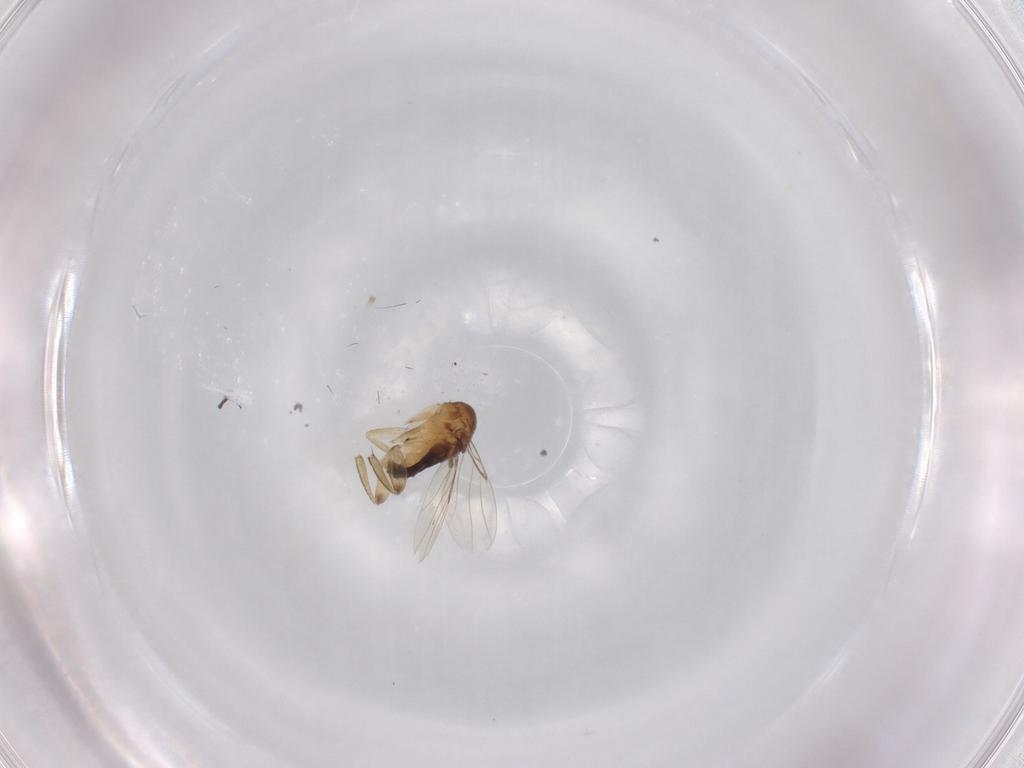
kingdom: Animalia
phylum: Arthropoda
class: Insecta
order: Diptera
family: Phoridae
